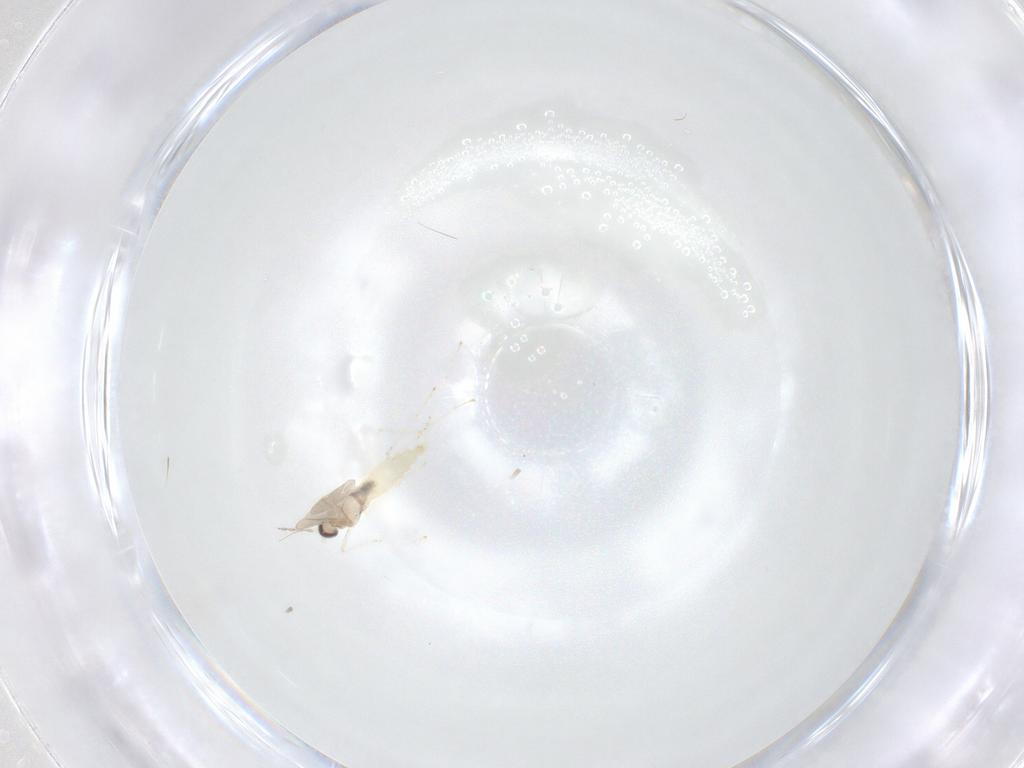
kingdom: Animalia
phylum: Arthropoda
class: Insecta
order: Diptera
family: Cecidomyiidae
